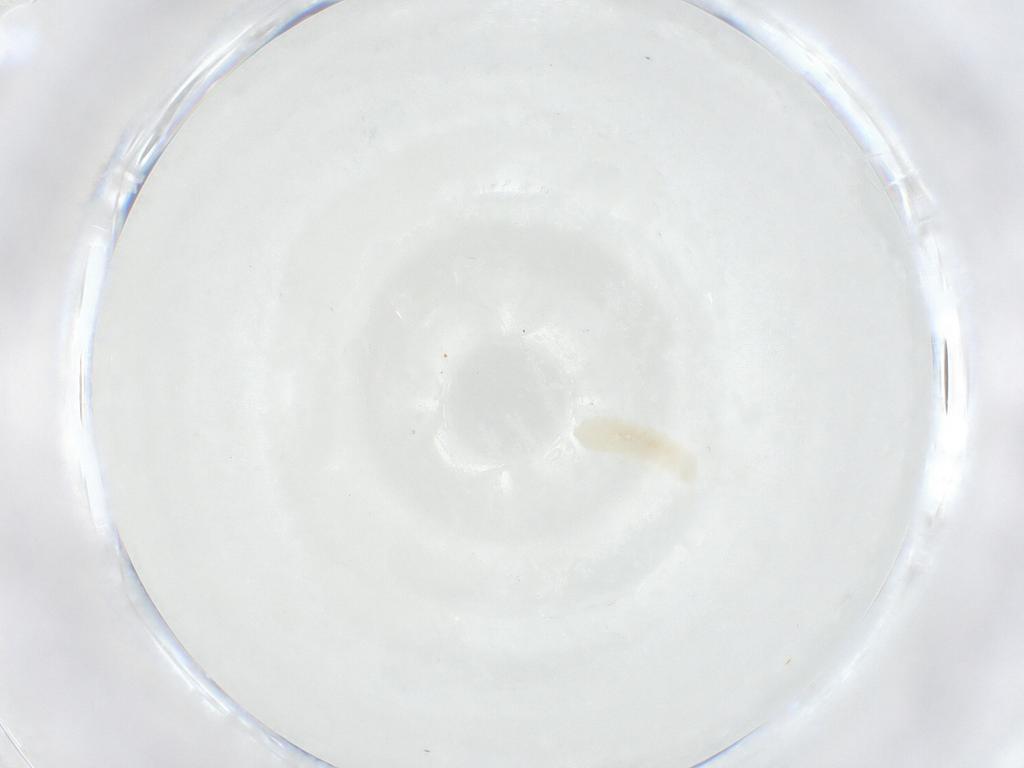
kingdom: Animalia
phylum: Arthropoda
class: Collembola
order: Poduromorpha
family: Onychiuridae
